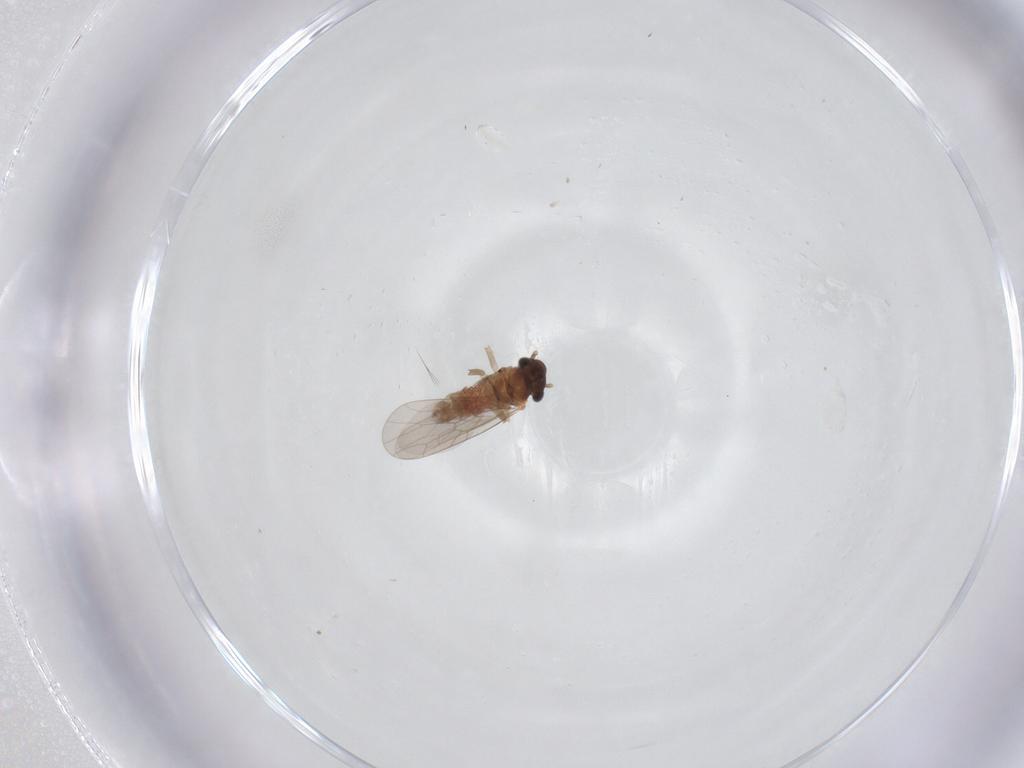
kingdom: Animalia
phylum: Arthropoda
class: Insecta
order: Psocodea
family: Lepidopsocidae
